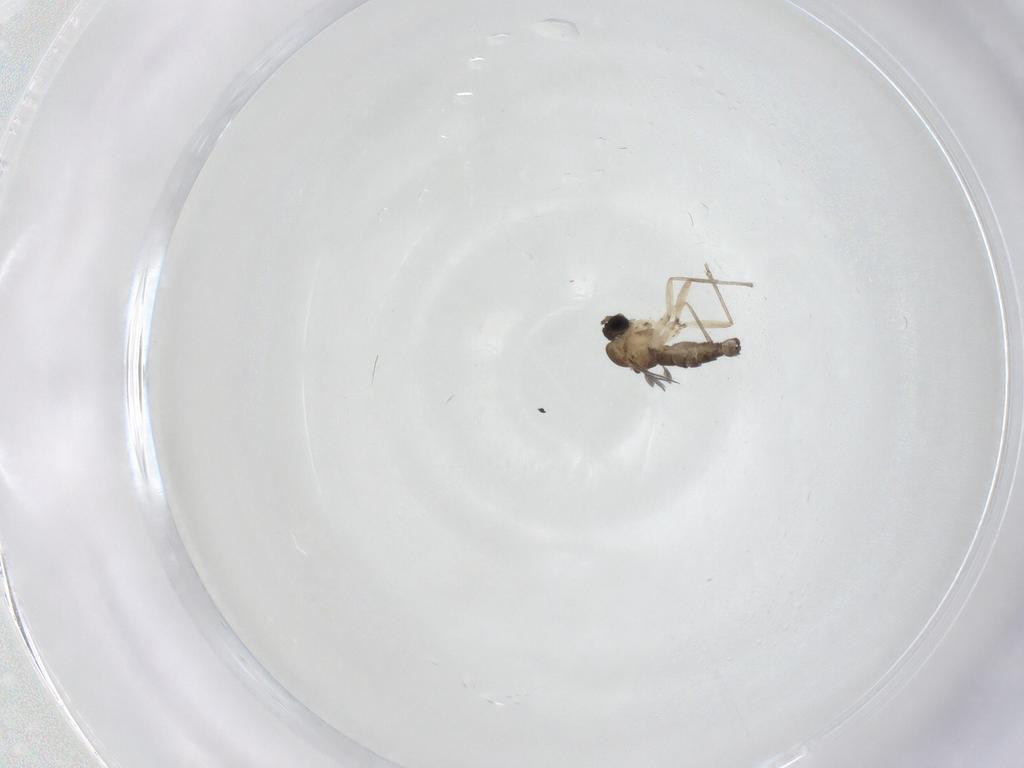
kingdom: Animalia
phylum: Arthropoda
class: Insecta
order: Diptera
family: Sciaridae
